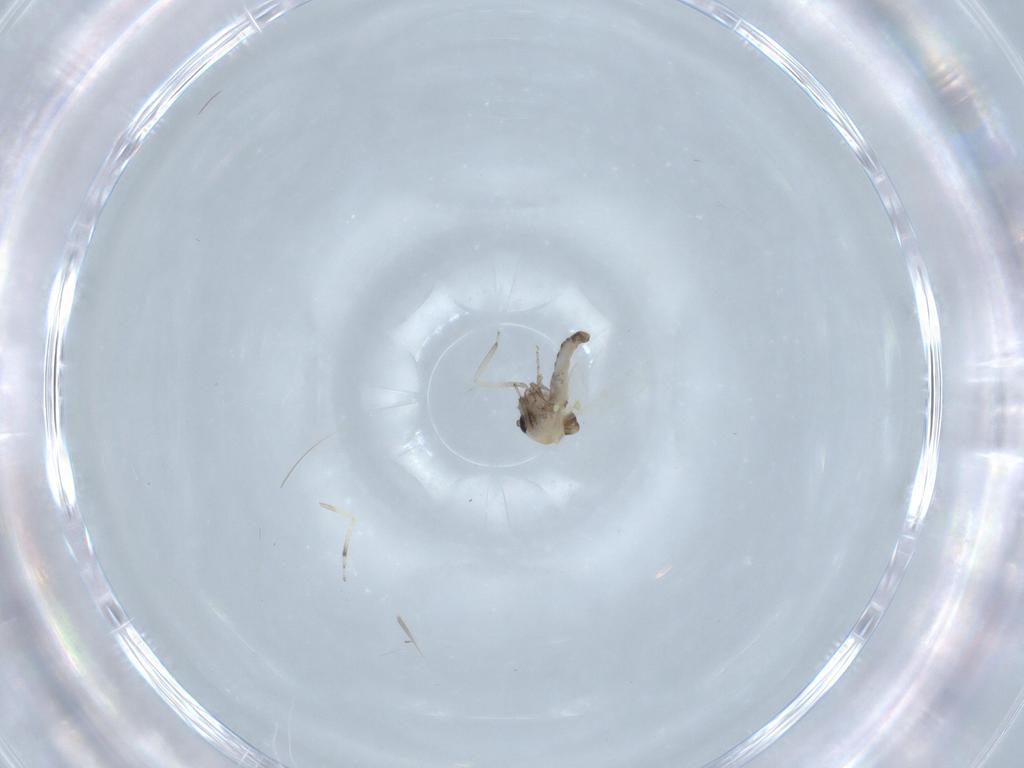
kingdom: Animalia
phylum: Arthropoda
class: Insecta
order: Diptera
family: Ceratopogonidae
